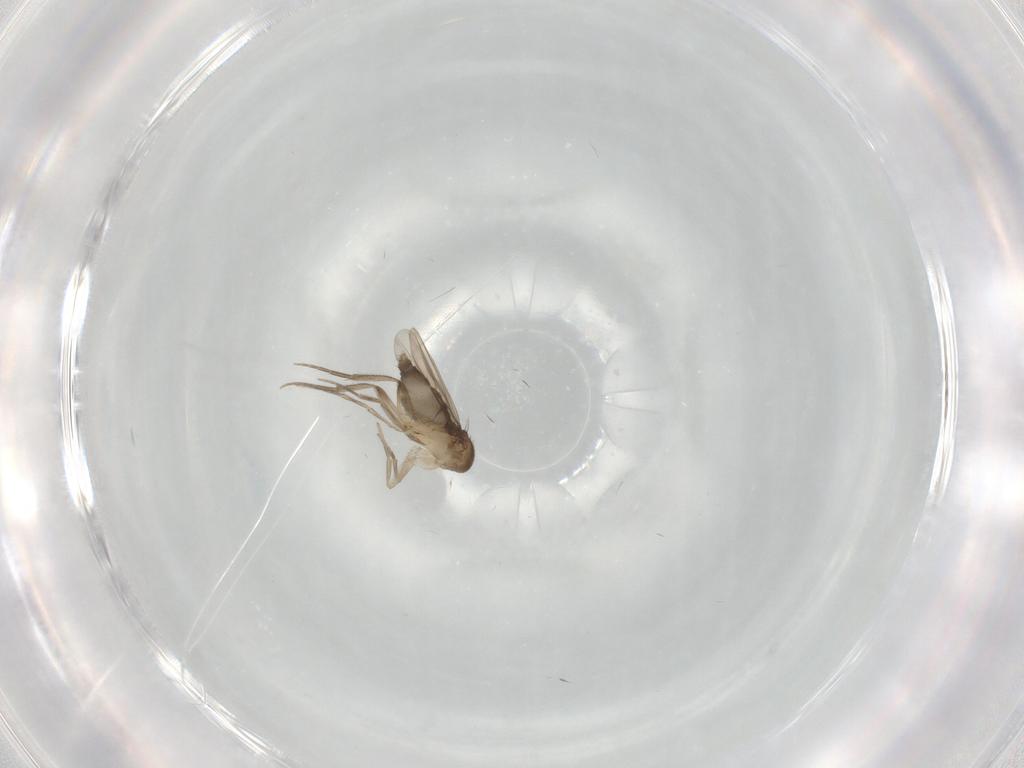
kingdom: Animalia
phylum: Arthropoda
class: Insecta
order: Diptera
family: Phoridae
